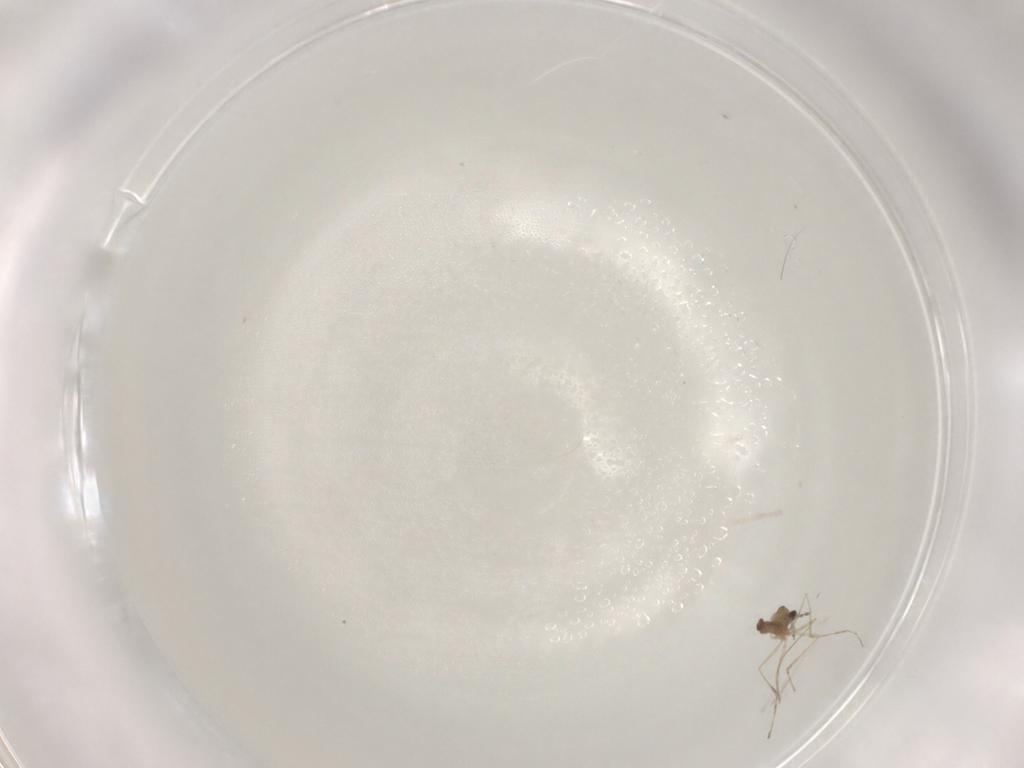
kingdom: Animalia
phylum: Arthropoda
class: Insecta
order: Diptera
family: Cecidomyiidae
